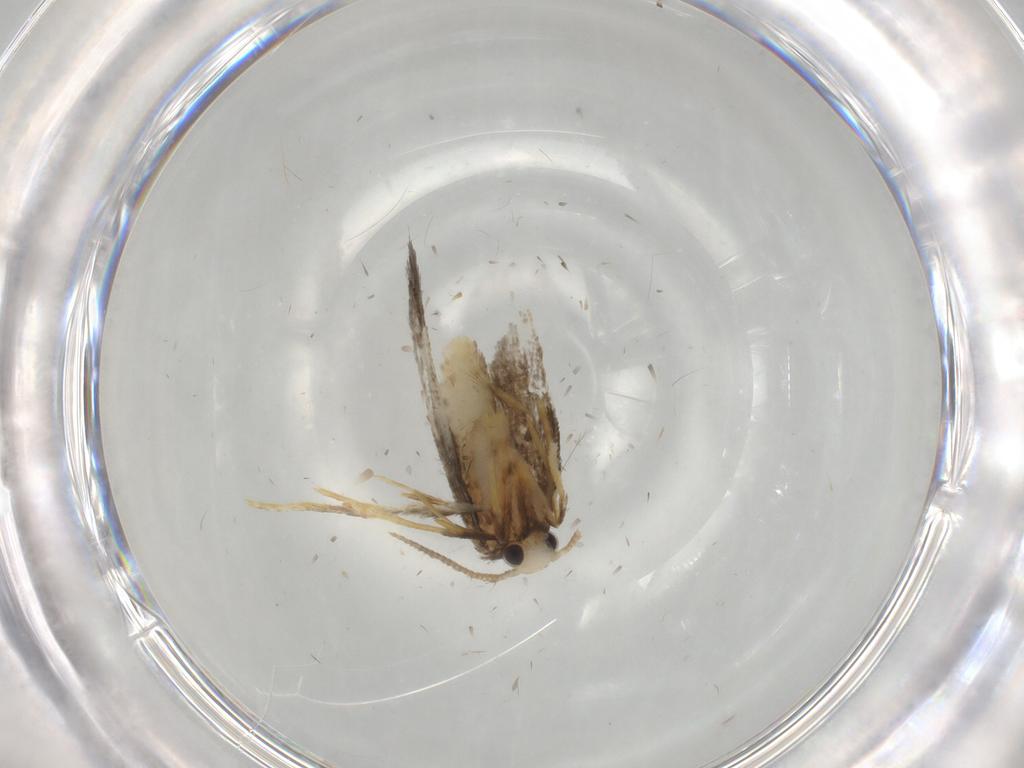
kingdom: Animalia
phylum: Arthropoda
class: Insecta
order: Lepidoptera
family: Psychidae
